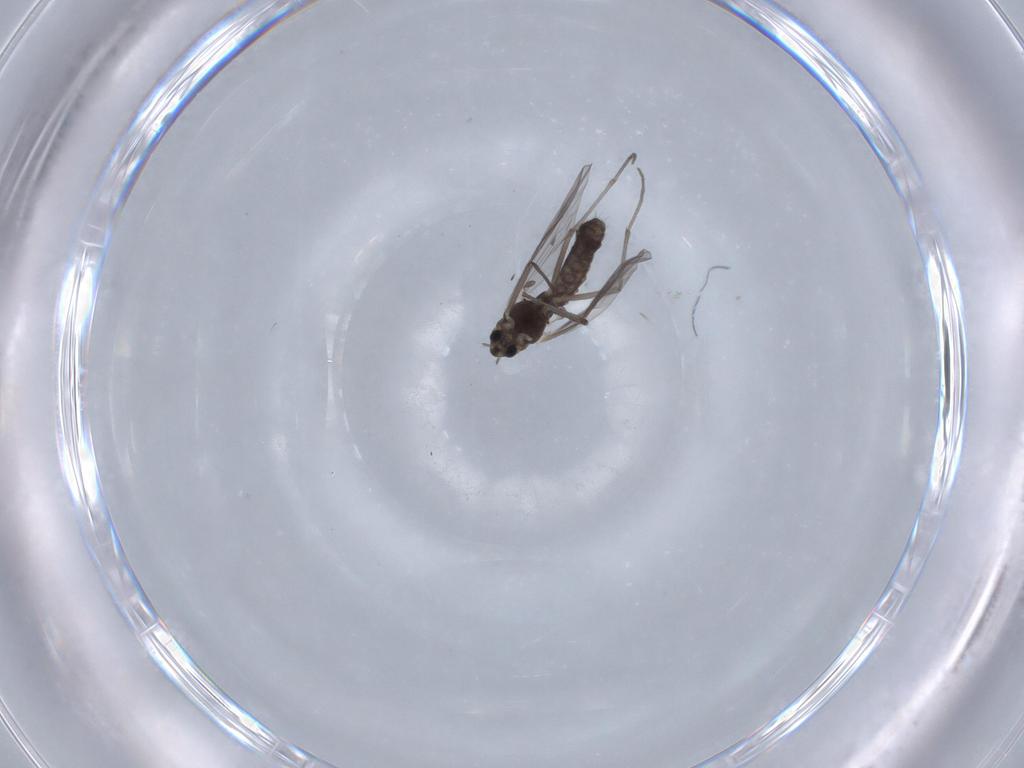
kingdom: Animalia
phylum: Arthropoda
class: Insecta
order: Diptera
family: Chironomidae
